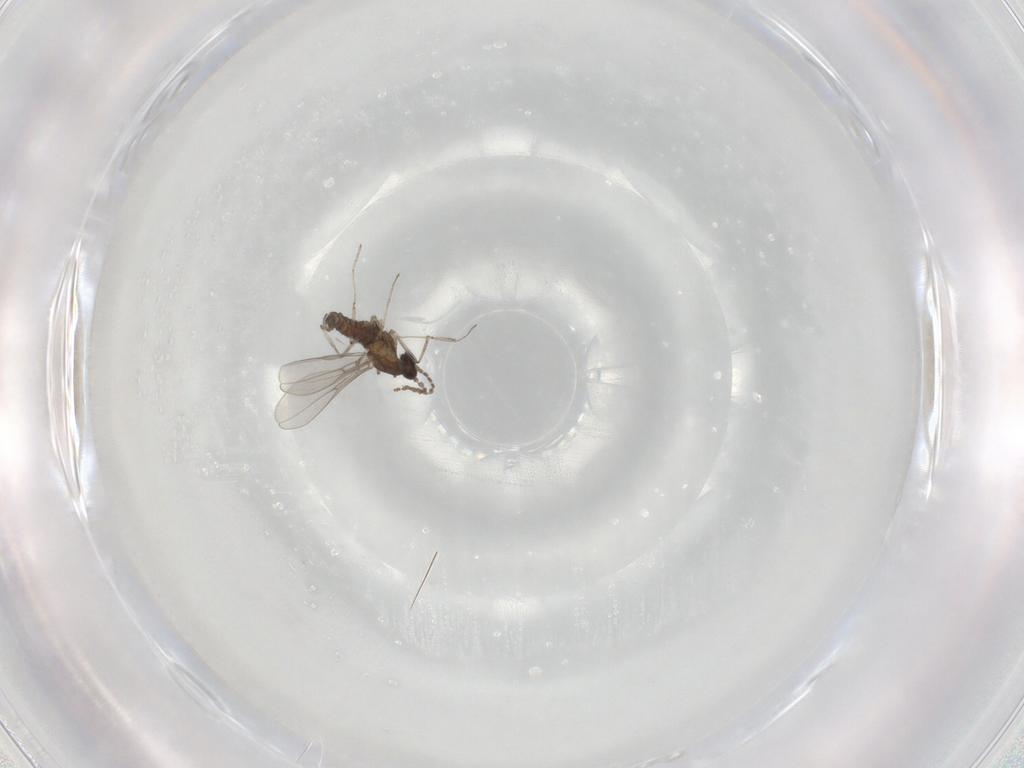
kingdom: Animalia
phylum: Arthropoda
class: Insecta
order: Diptera
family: Cecidomyiidae
